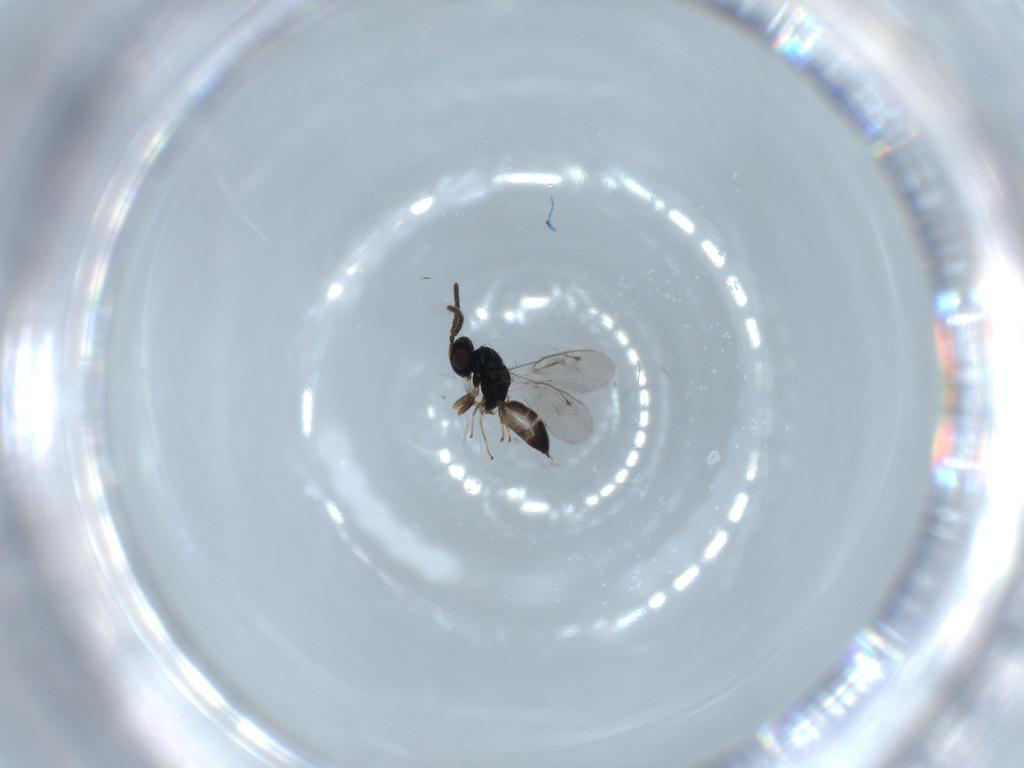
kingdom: Animalia
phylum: Arthropoda
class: Insecta
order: Hymenoptera
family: Pteromalidae
